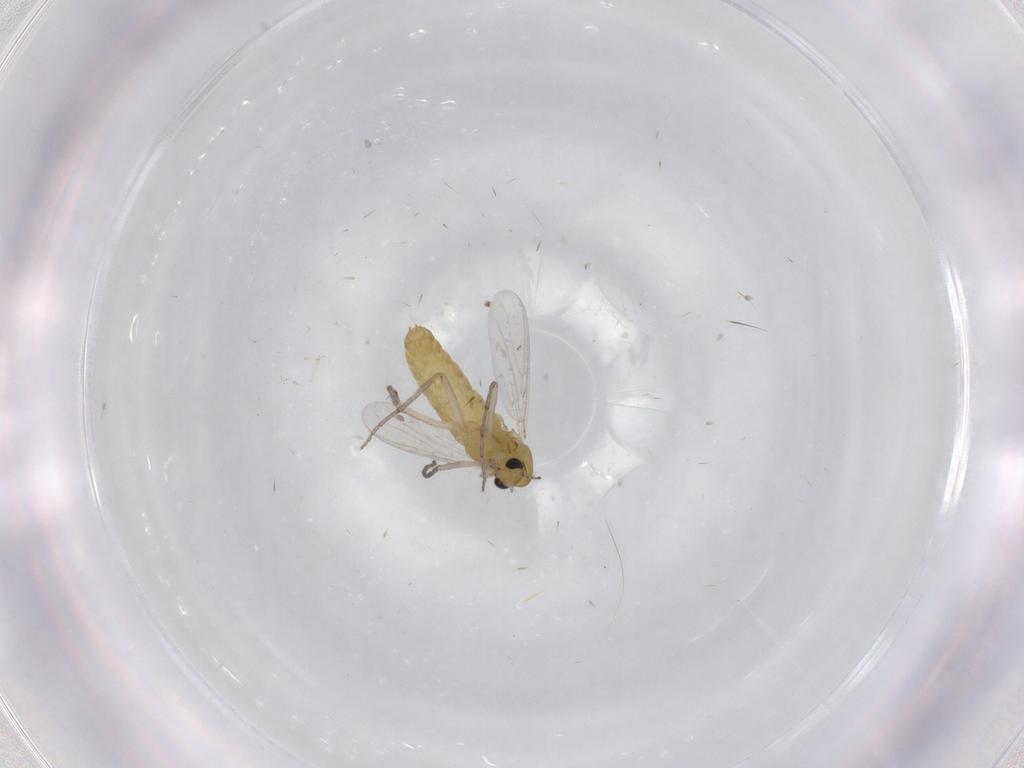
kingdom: Animalia
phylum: Arthropoda
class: Insecta
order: Diptera
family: Sciaridae
